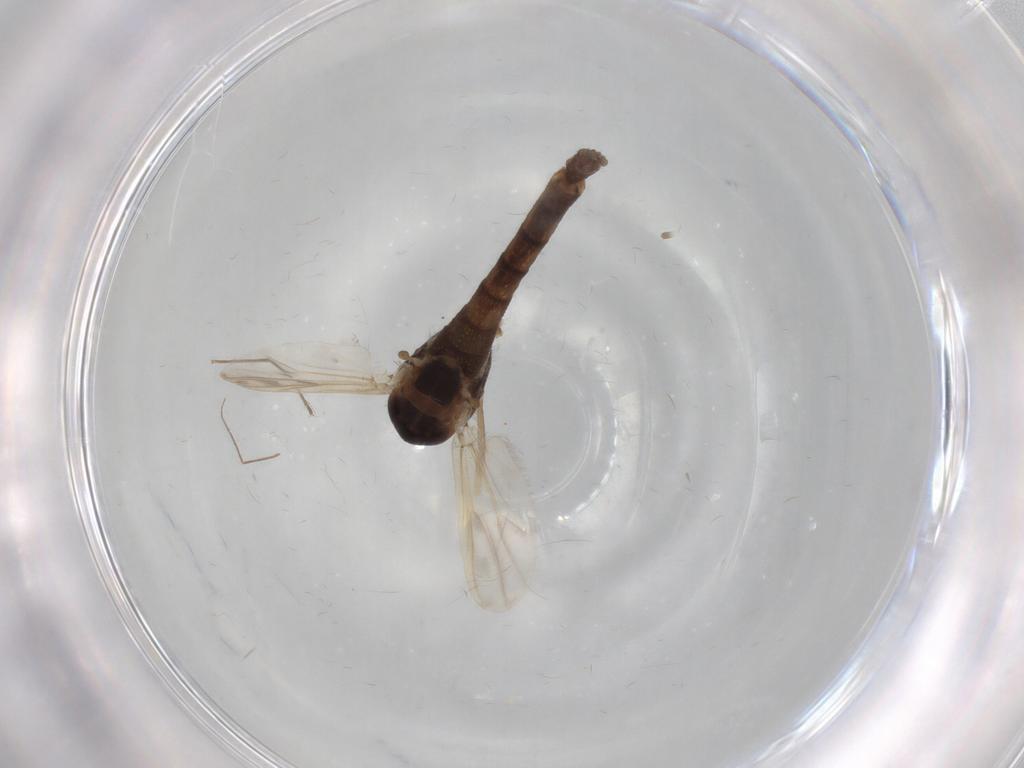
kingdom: Animalia
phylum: Arthropoda
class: Insecta
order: Diptera
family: Chironomidae
